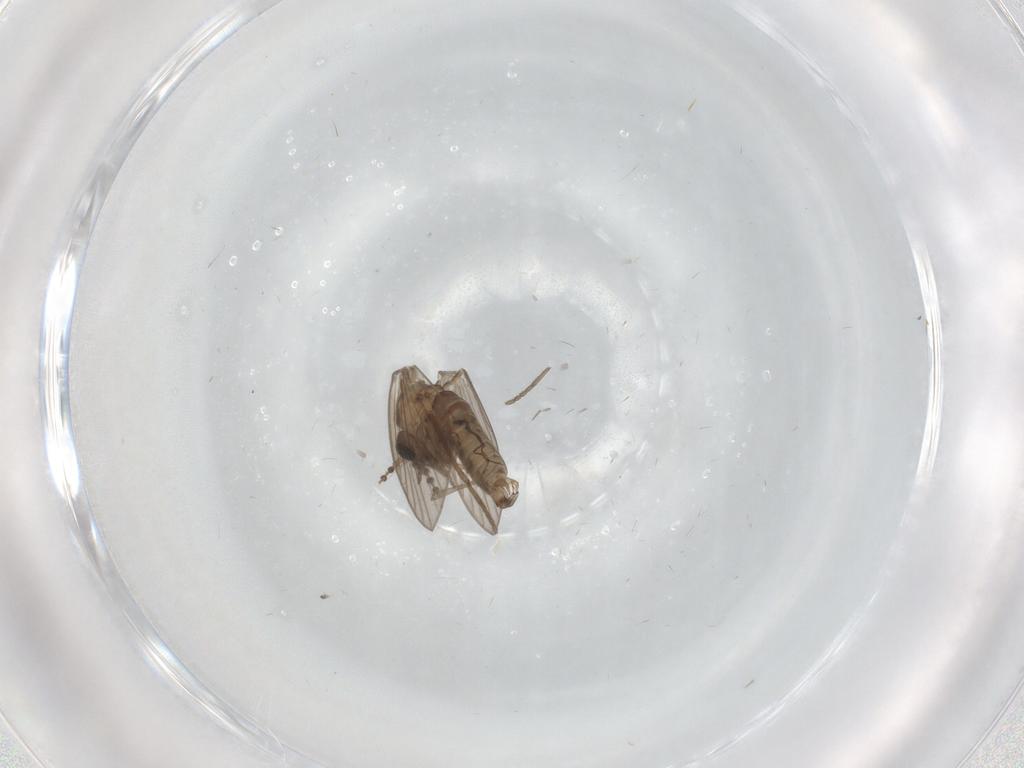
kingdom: Animalia
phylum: Arthropoda
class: Insecta
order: Diptera
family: Psychodidae
